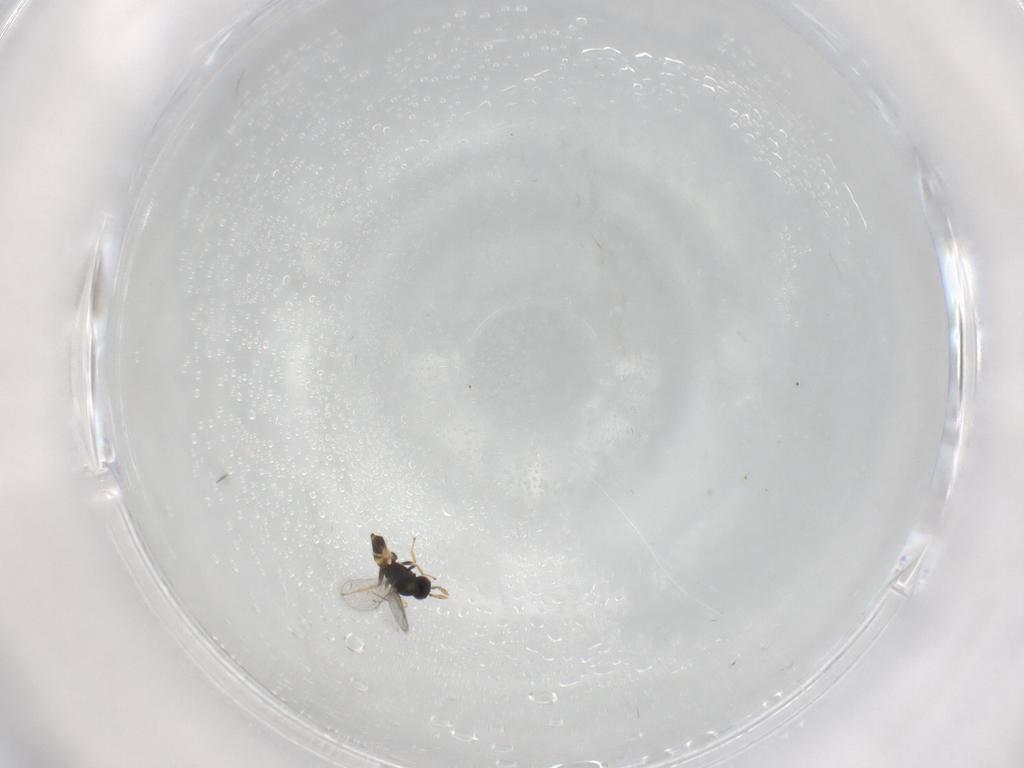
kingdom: Animalia
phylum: Arthropoda
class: Insecta
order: Hymenoptera
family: Eulophidae
